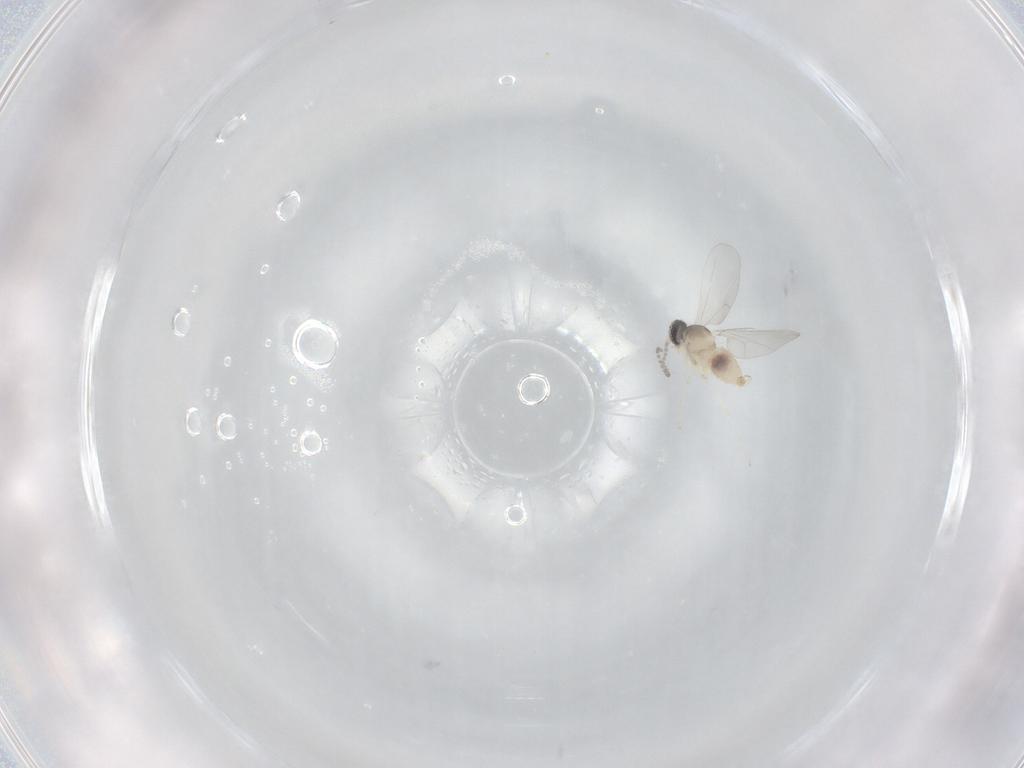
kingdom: Animalia
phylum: Arthropoda
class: Insecta
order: Diptera
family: Cecidomyiidae
